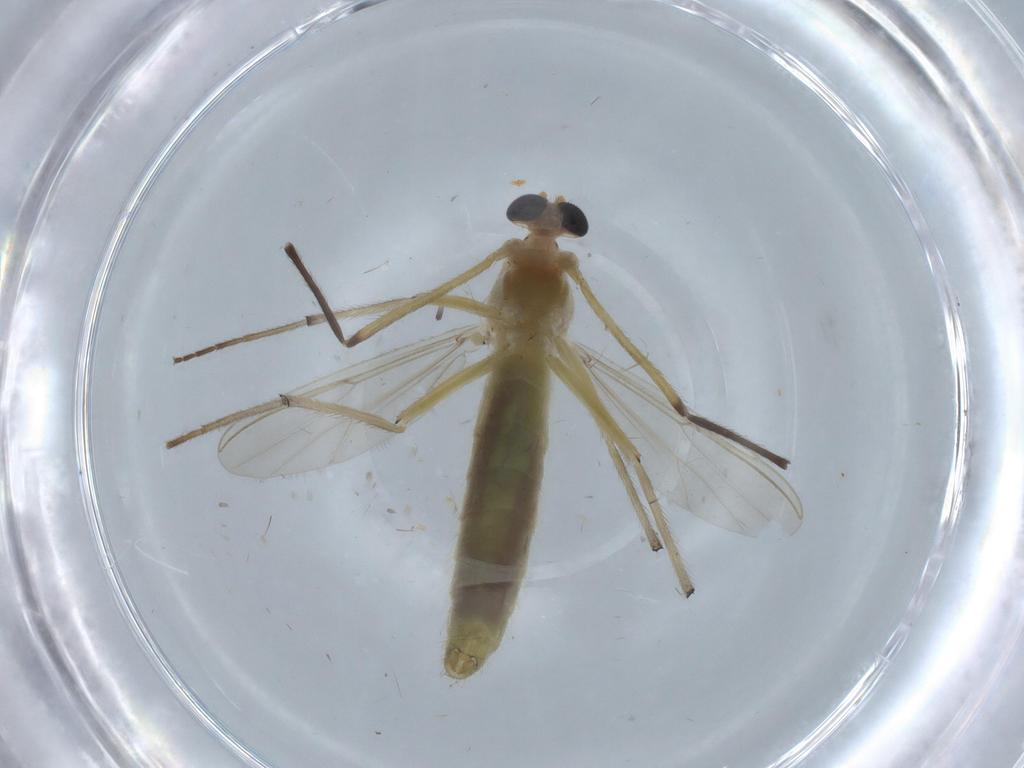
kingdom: Animalia
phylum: Arthropoda
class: Insecta
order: Diptera
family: Chironomidae
